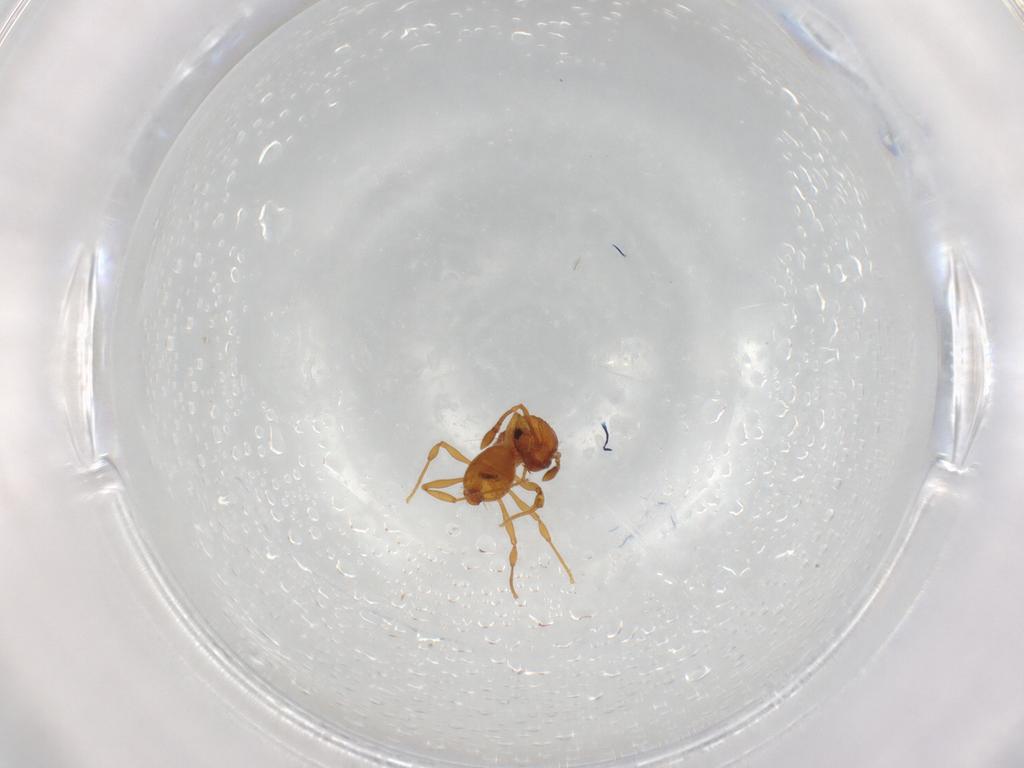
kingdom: Animalia
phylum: Arthropoda
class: Insecta
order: Hymenoptera
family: Formicidae
